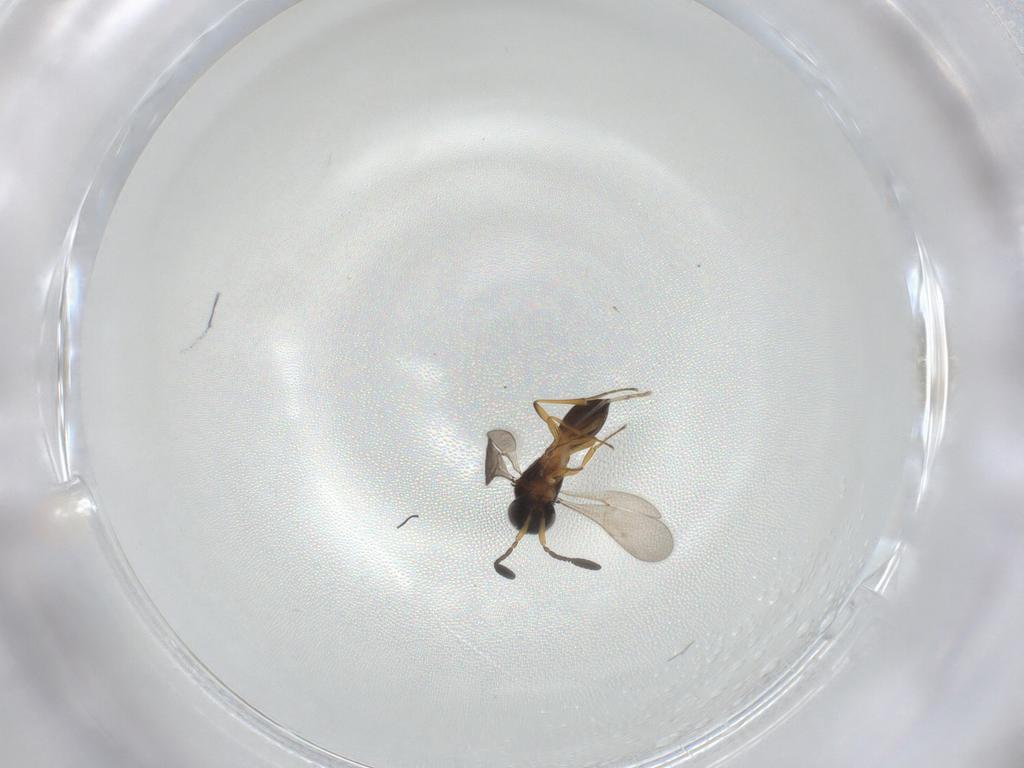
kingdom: Animalia
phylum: Arthropoda
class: Insecta
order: Hymenoptera
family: Scelionidae
